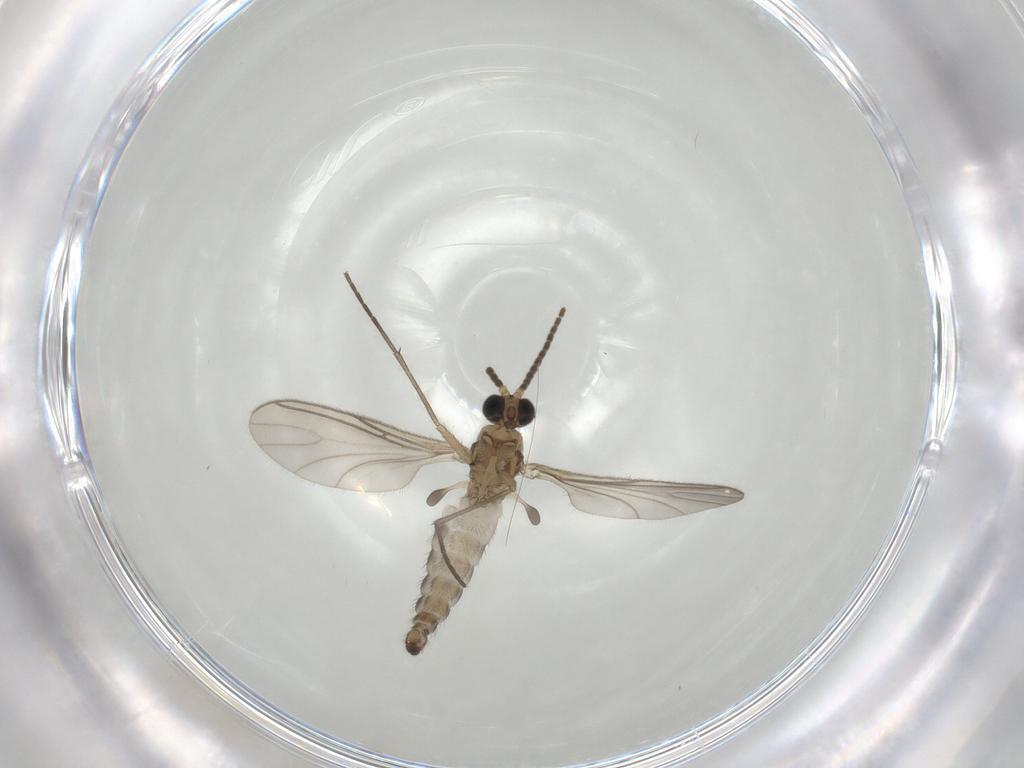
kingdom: Animalia
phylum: Arthropoda
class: Insecta
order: Diptera
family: Sciaridae
